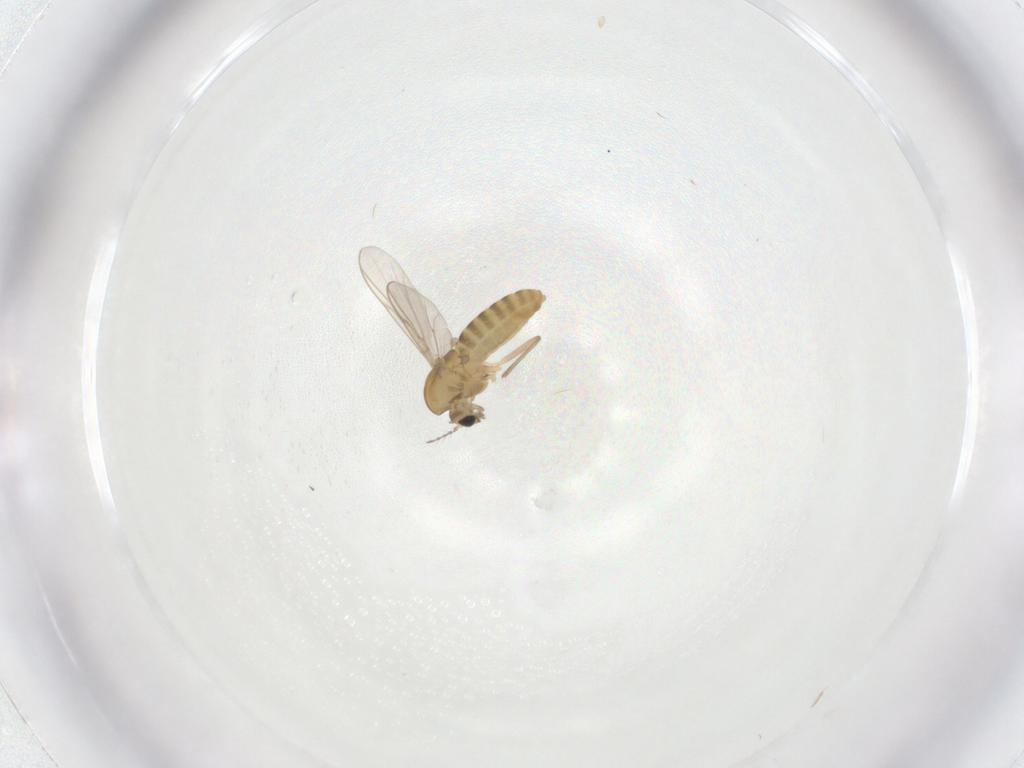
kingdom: Animalia
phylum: Arthropoda
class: Insecta
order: Diptera
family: Chironomidae
